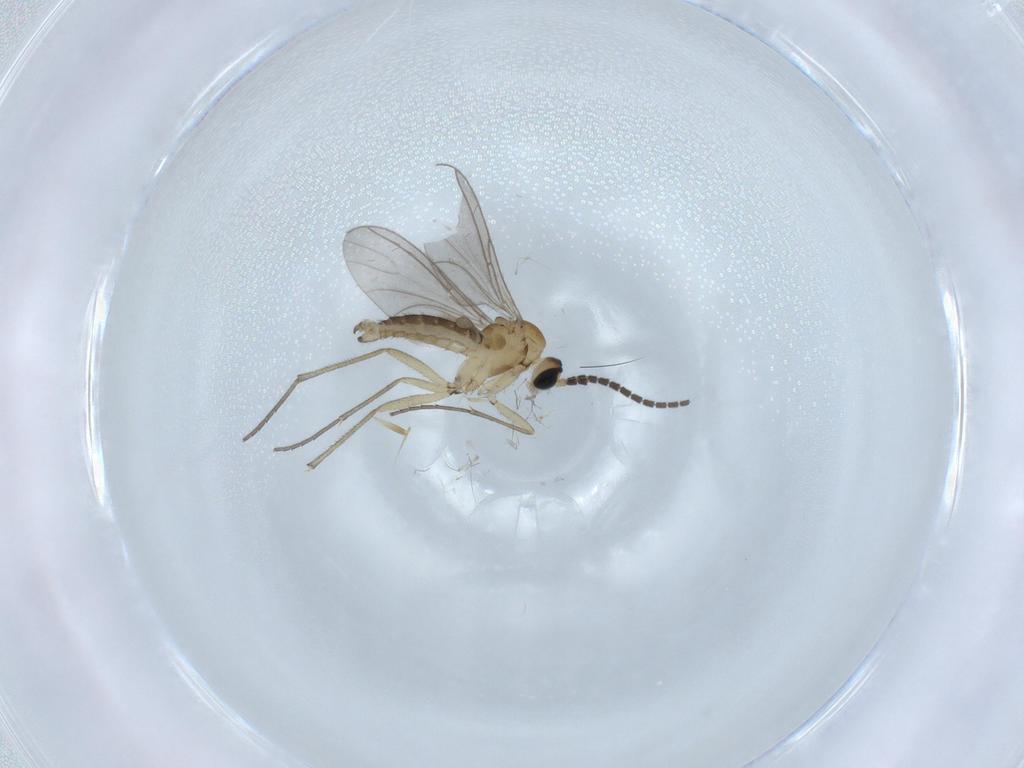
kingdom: Animalia
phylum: Arthropoda
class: Insecta
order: Diptera
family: Sciaridae
